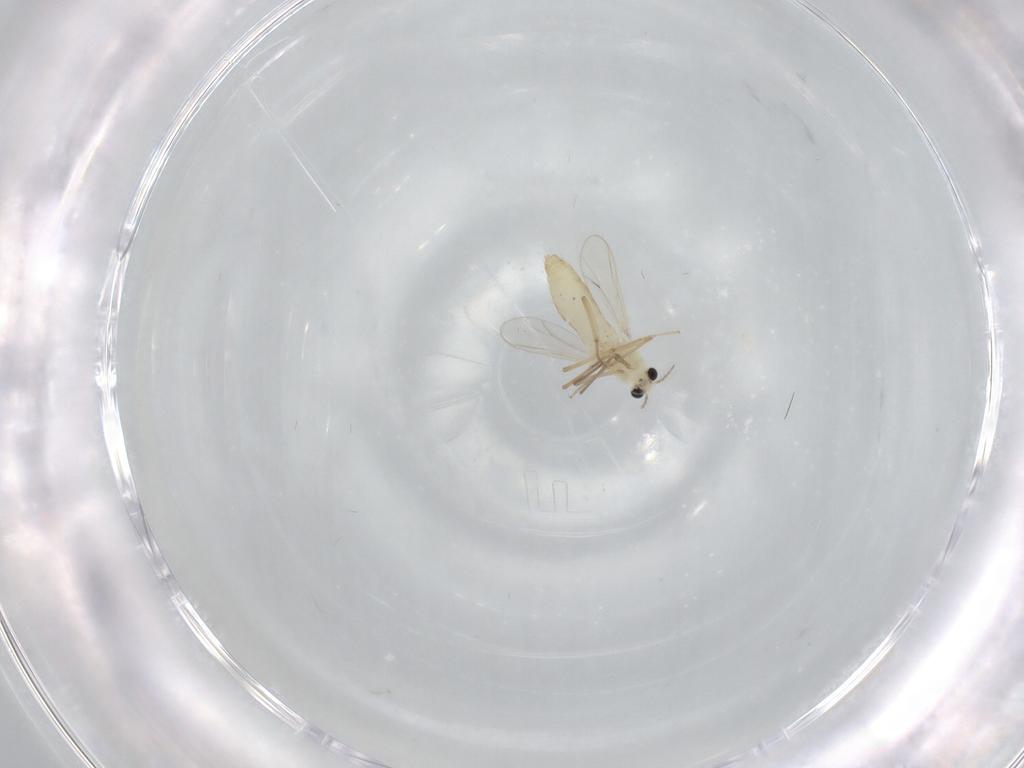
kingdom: Animalia
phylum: Arthropoda
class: Insecta
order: Diptera
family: Chironomidae
